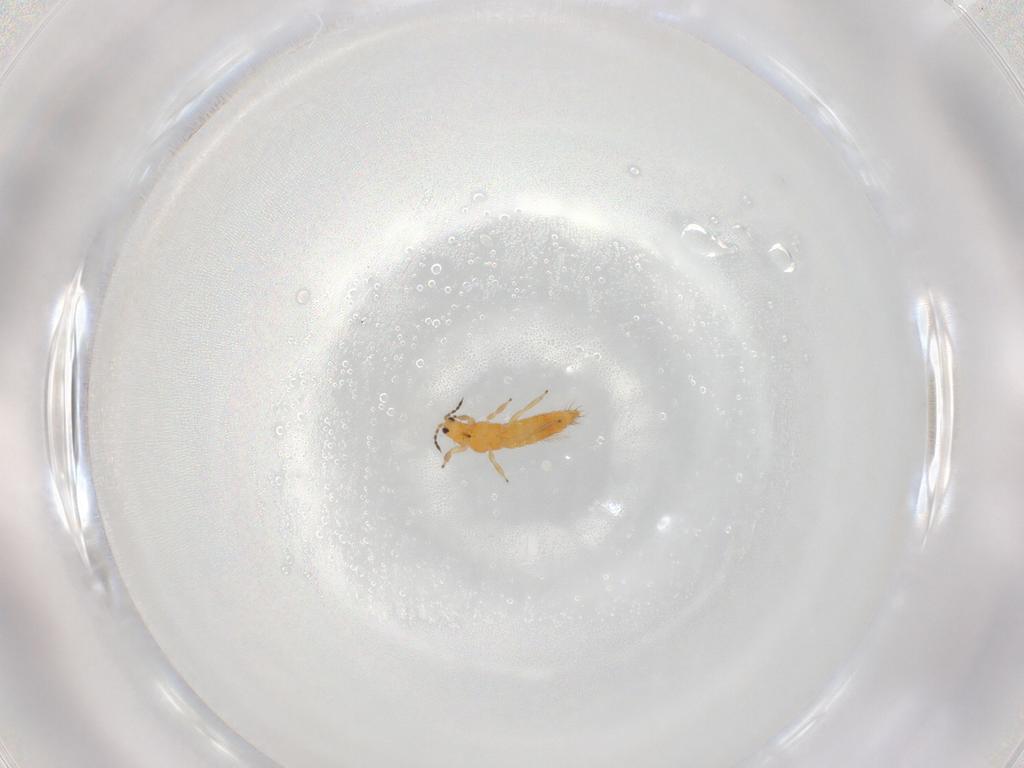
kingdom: Animalia
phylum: Arthropoda
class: Insecta
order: Thysanoptera
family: Thripidae
